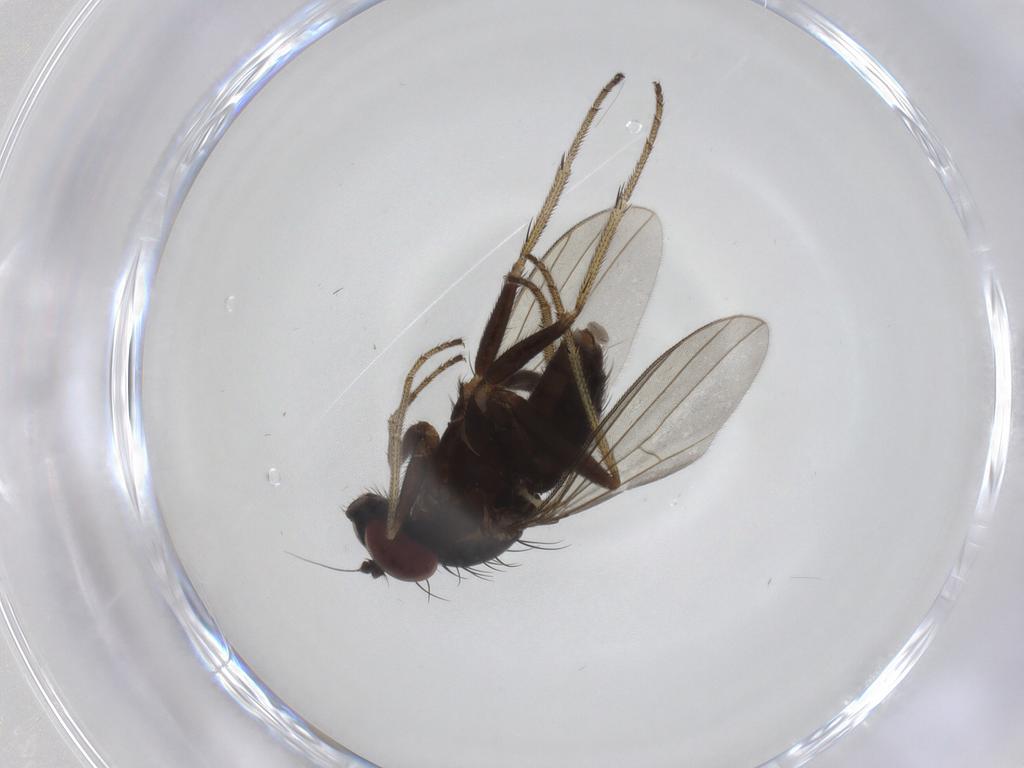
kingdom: Animalia
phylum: Arthropoda
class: Insecta
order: Diptera
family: Dolichopodidae
